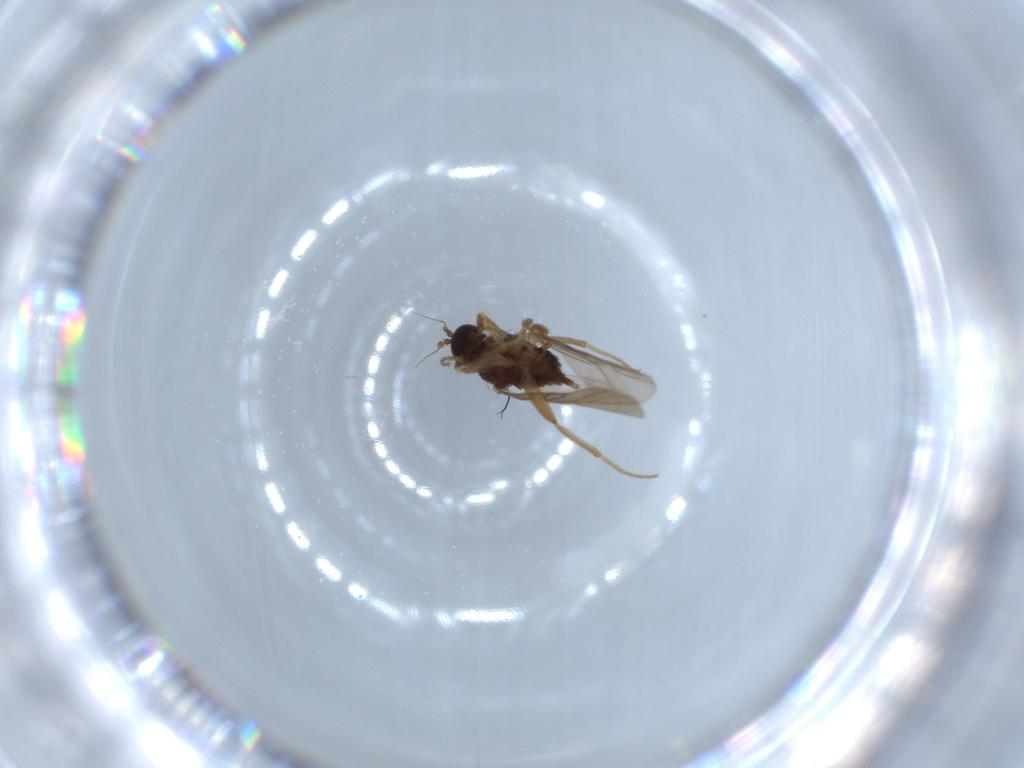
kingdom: Animalia
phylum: Arthropoda
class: Insecta
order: Diptera
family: Hybotidae
